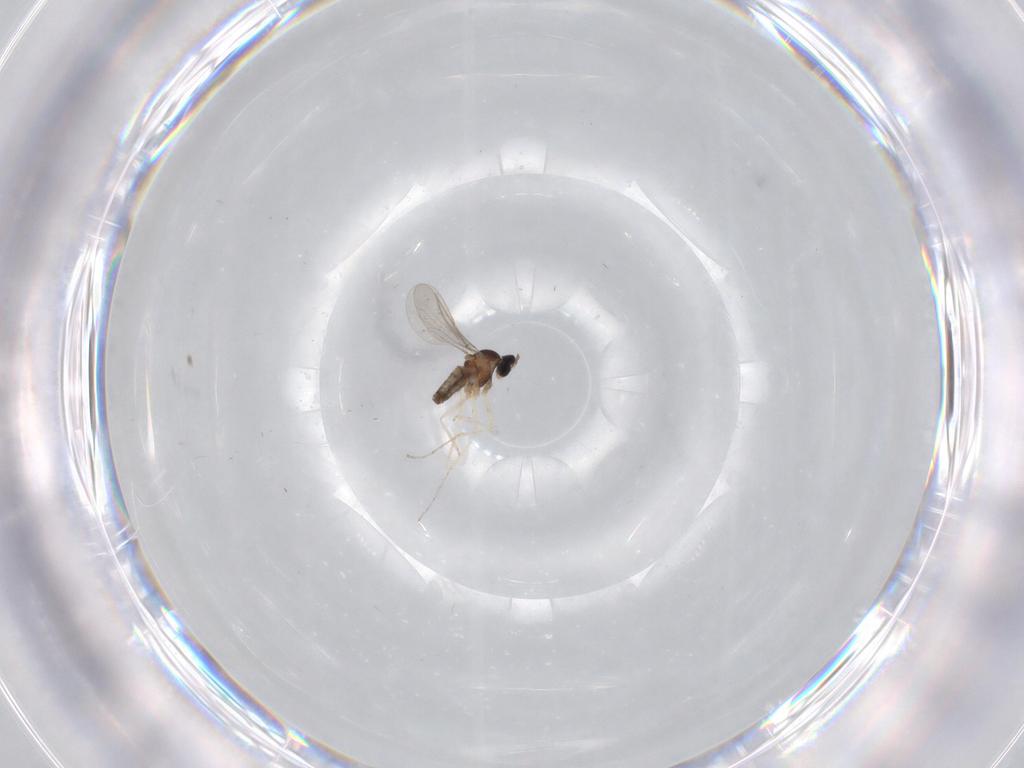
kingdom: Animalia
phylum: Arthropoda
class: Insecta
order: Diptera
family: Cecidomyiidae
